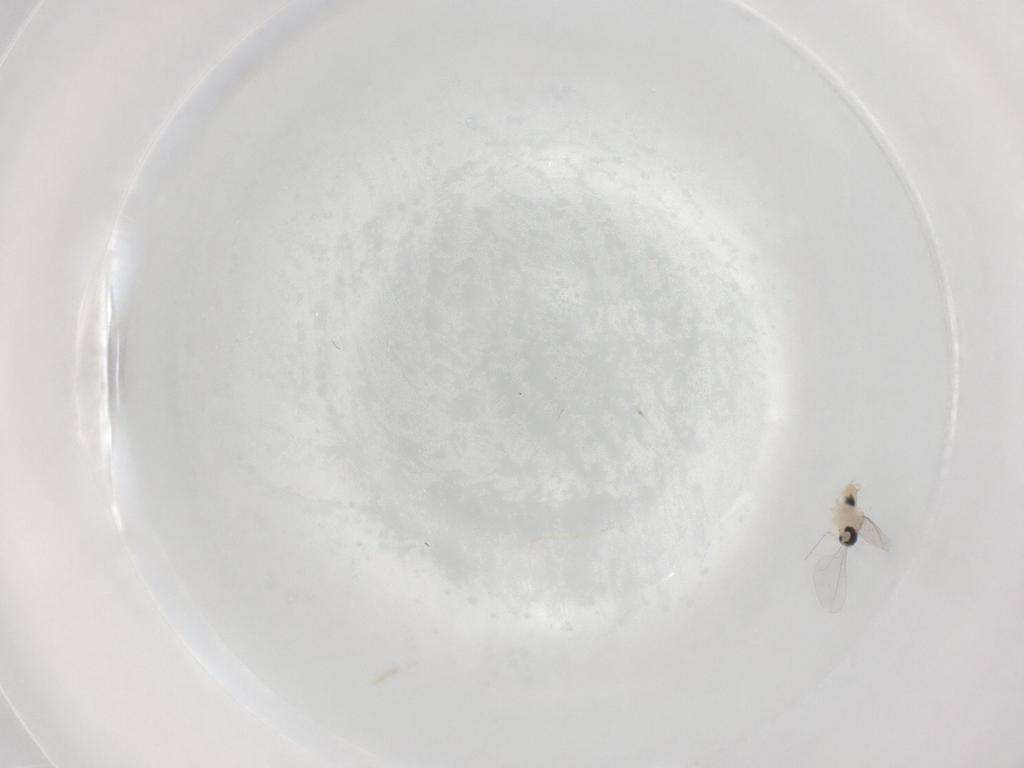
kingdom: Animalia
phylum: Arthropoda
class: Insecta
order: Diptera
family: Cecidomyiidae
